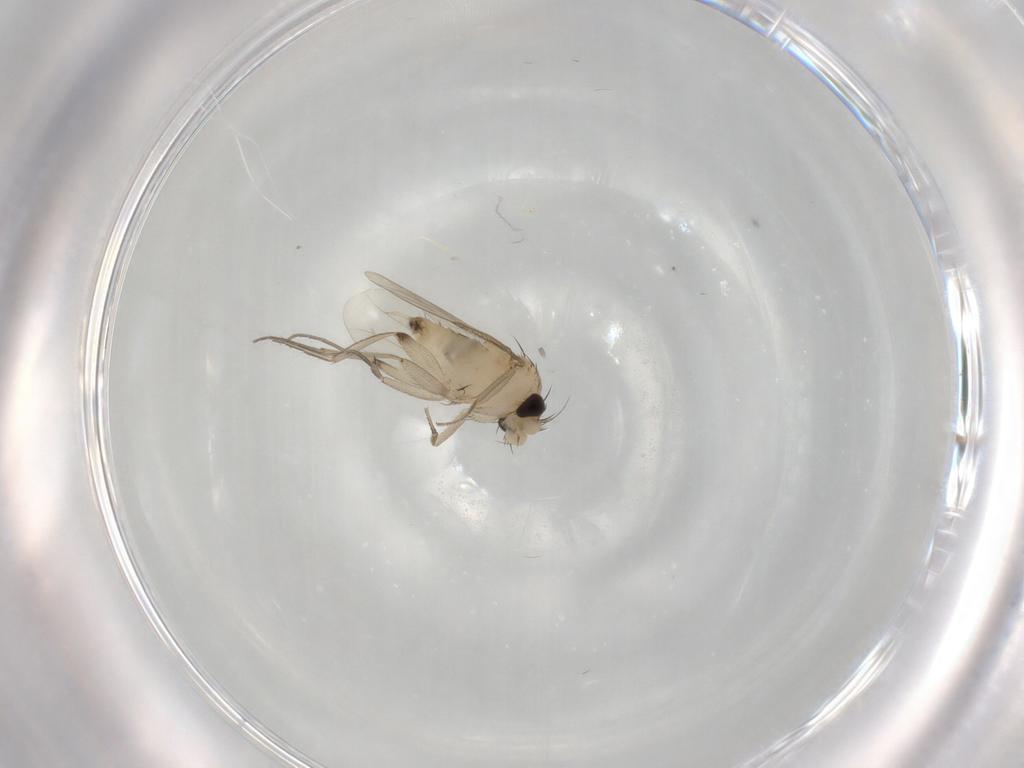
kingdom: Animalia
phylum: Arthropoda
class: Insecta
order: Diptera
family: Phoridae
